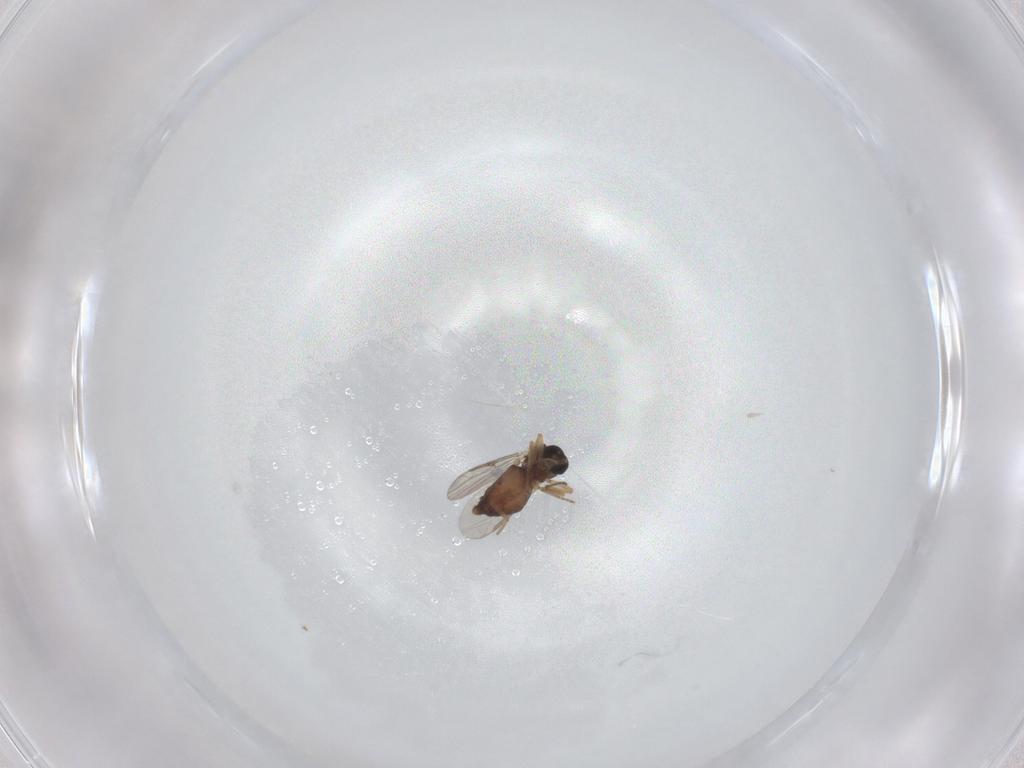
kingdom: Animalia
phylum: Arthropoda
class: Insecta
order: Diptera
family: Ceratopogonidae
